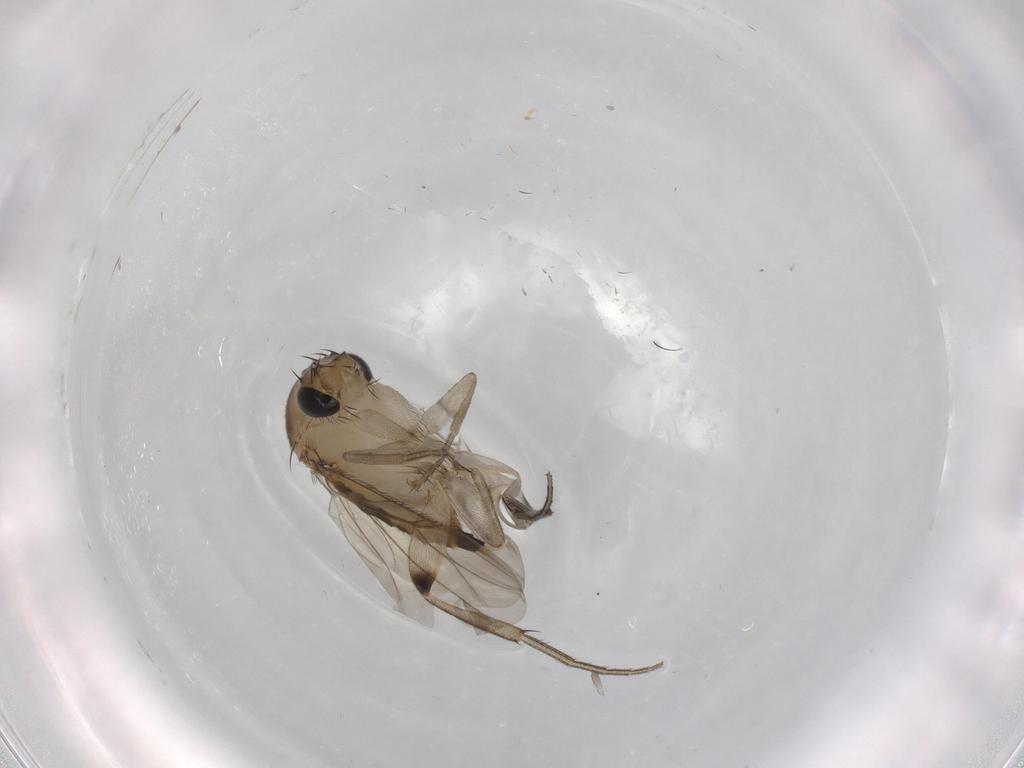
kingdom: Animalia
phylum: Arthropoda
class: Insecta
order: Diptera
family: Phoridae
